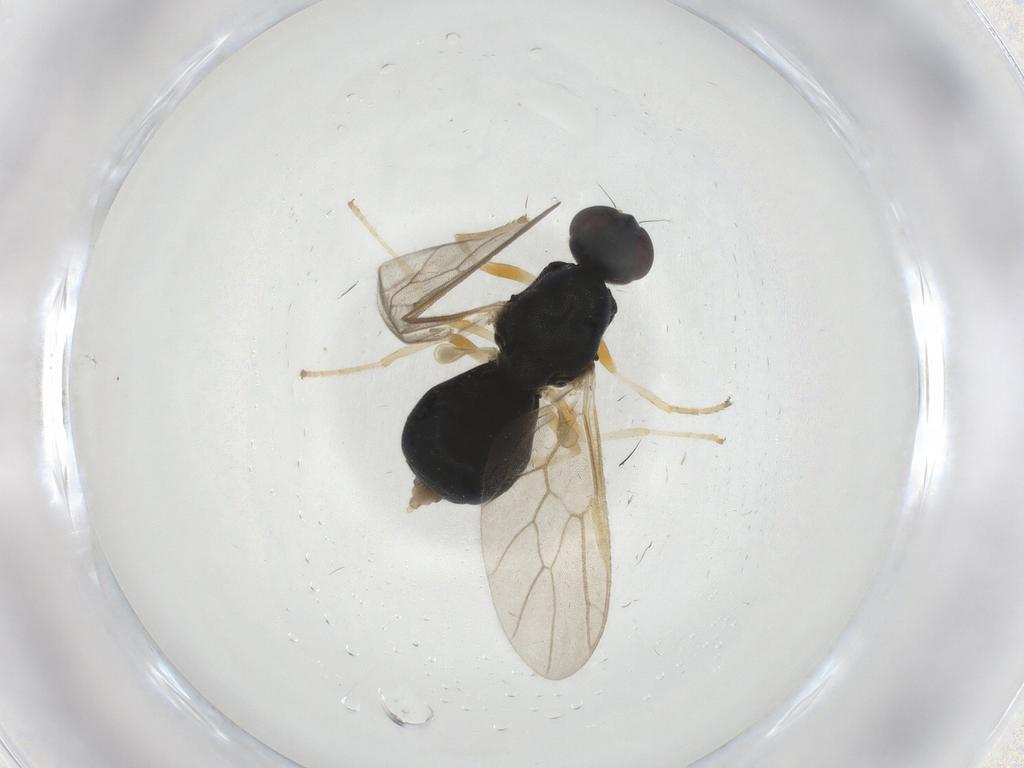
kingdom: Animalia
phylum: Arthropoda
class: Insecta
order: Diptera
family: Stratiomyidae
